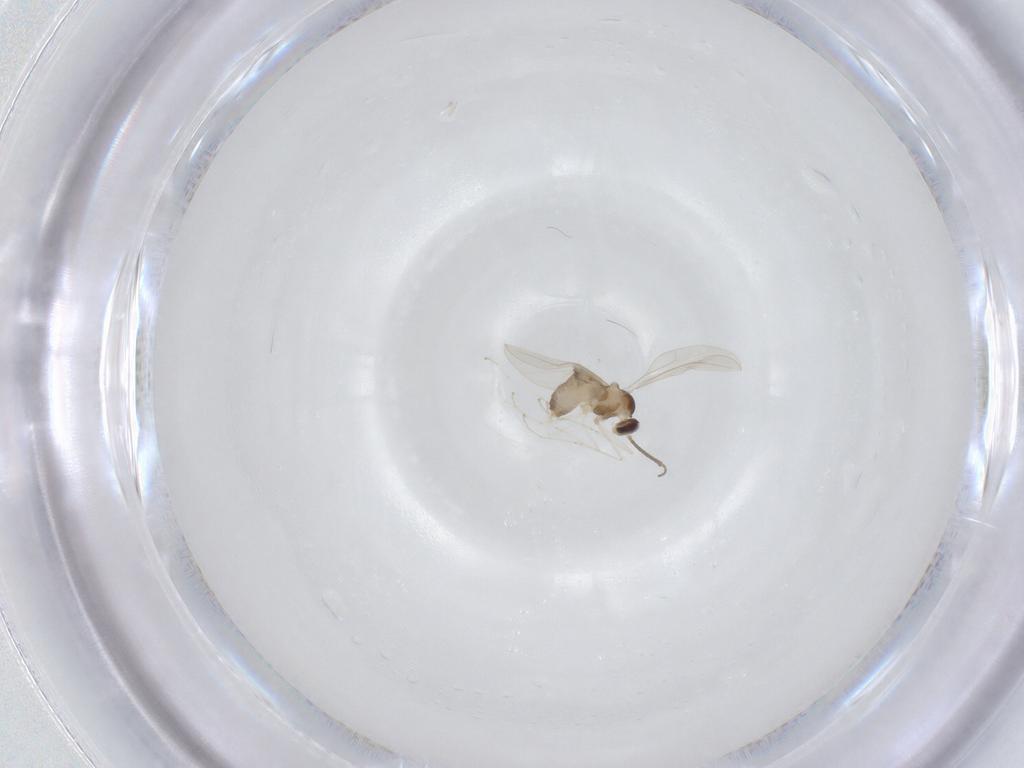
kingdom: Animalia
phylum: Arthropoda
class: Insecta
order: Diptera
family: Cecidomyiidae
